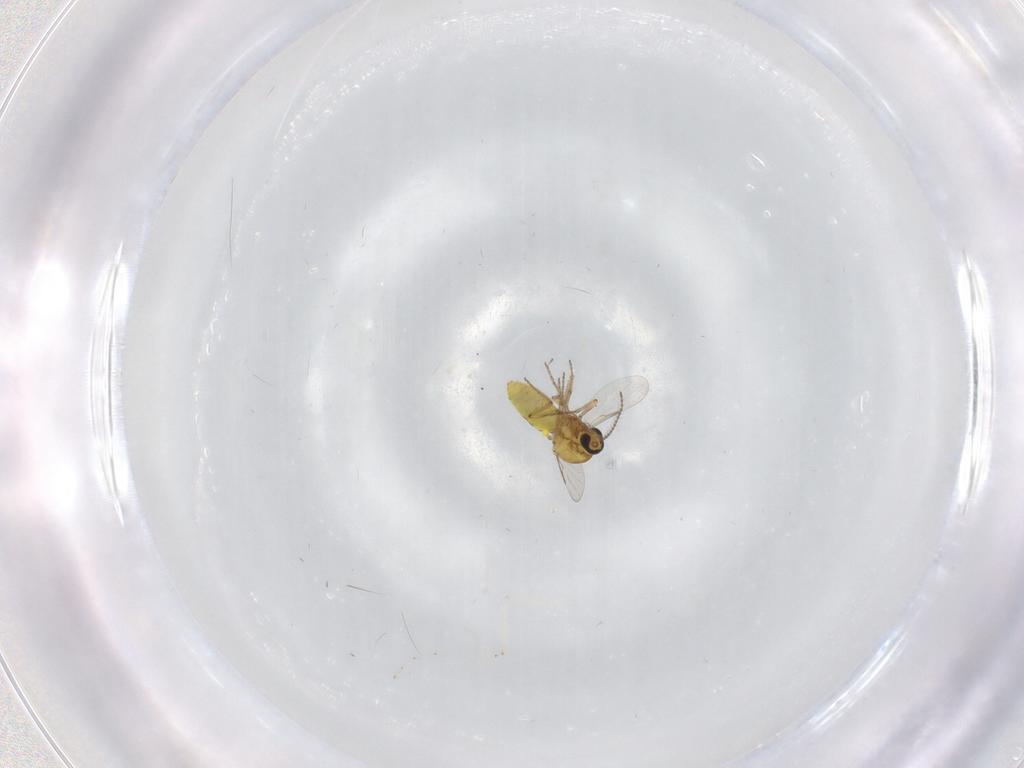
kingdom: Animalia
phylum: Arthropoda
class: Insecta
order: Diptera
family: Ceratopogonidae
